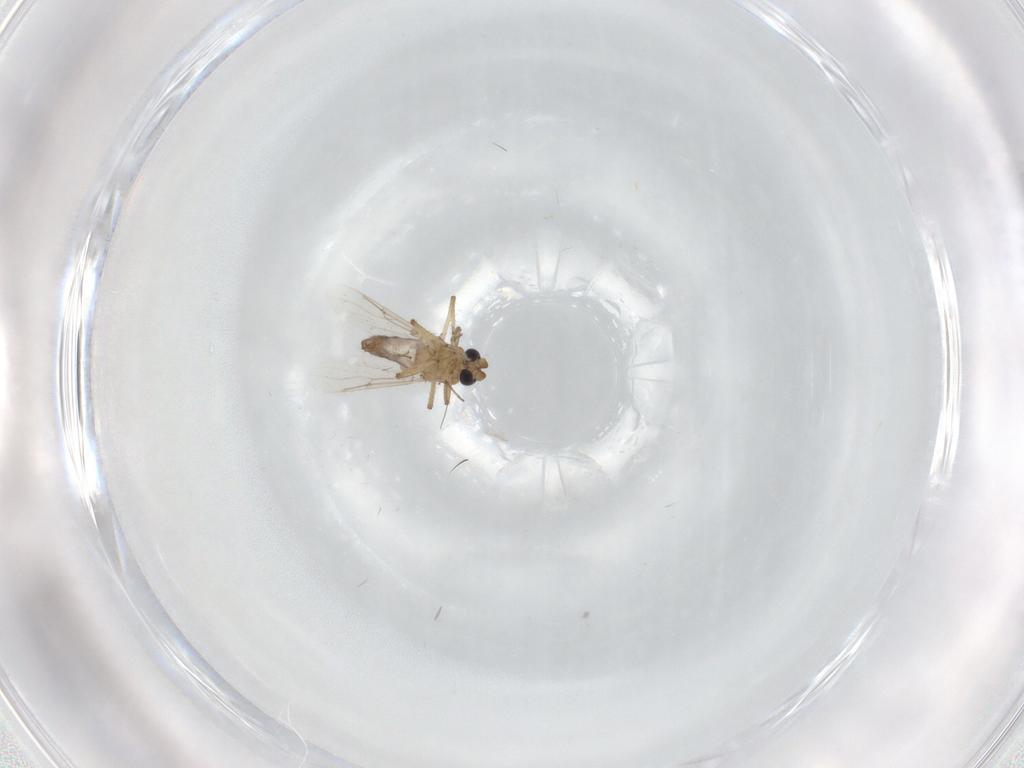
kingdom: Animalia
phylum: Arthropoda
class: Insecta
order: Diptera
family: Ceratopogonidae
